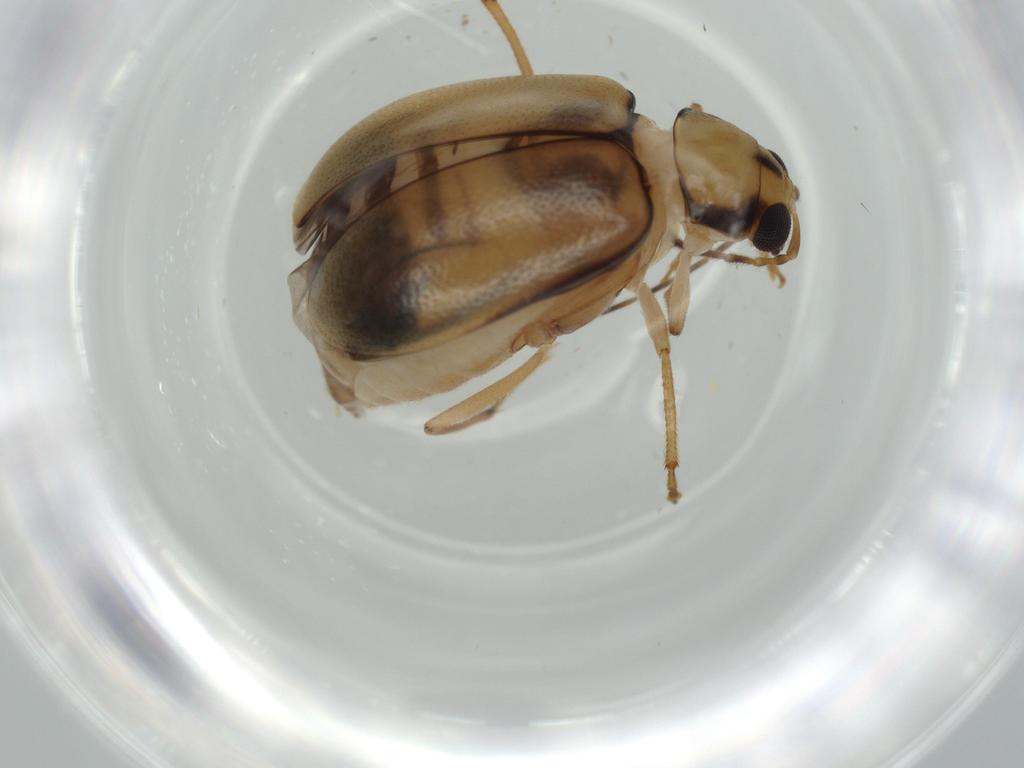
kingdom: Animalia
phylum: Arthropoda
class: Insecta
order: Coleoptera
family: Chrysomelidae
